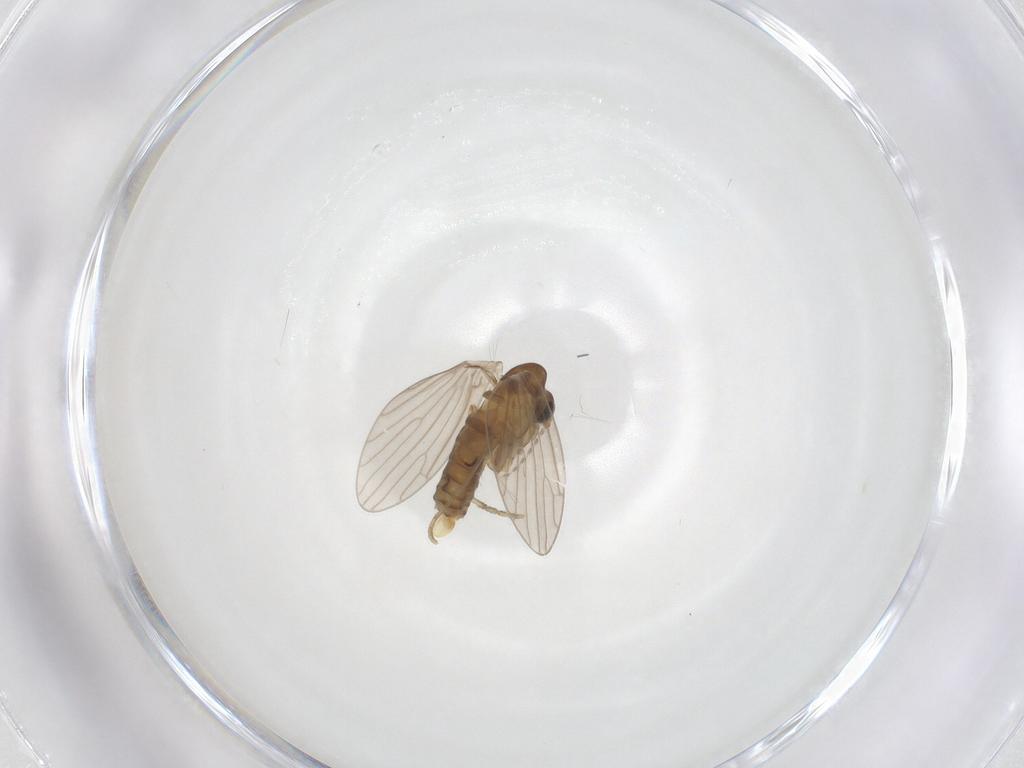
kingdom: Animalia
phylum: Arthropoda
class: Insecta
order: Diptera
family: Psychodidae
